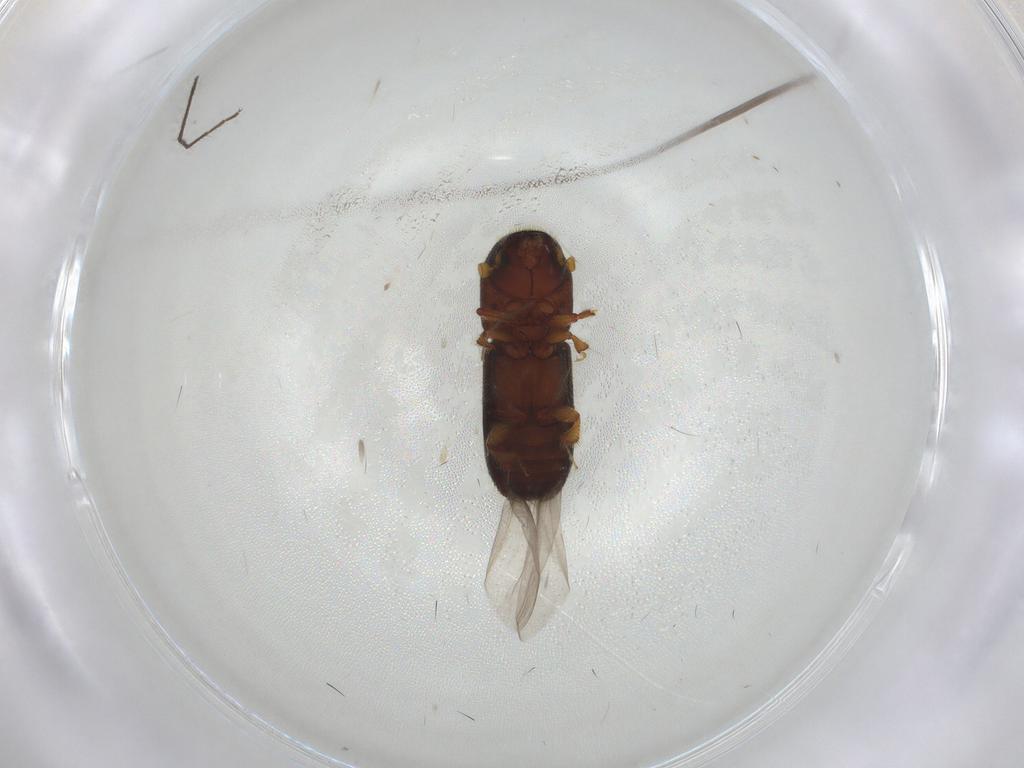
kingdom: Animalia
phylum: Arthropoda
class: Insecta
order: Coleoptera
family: Curculionidae
